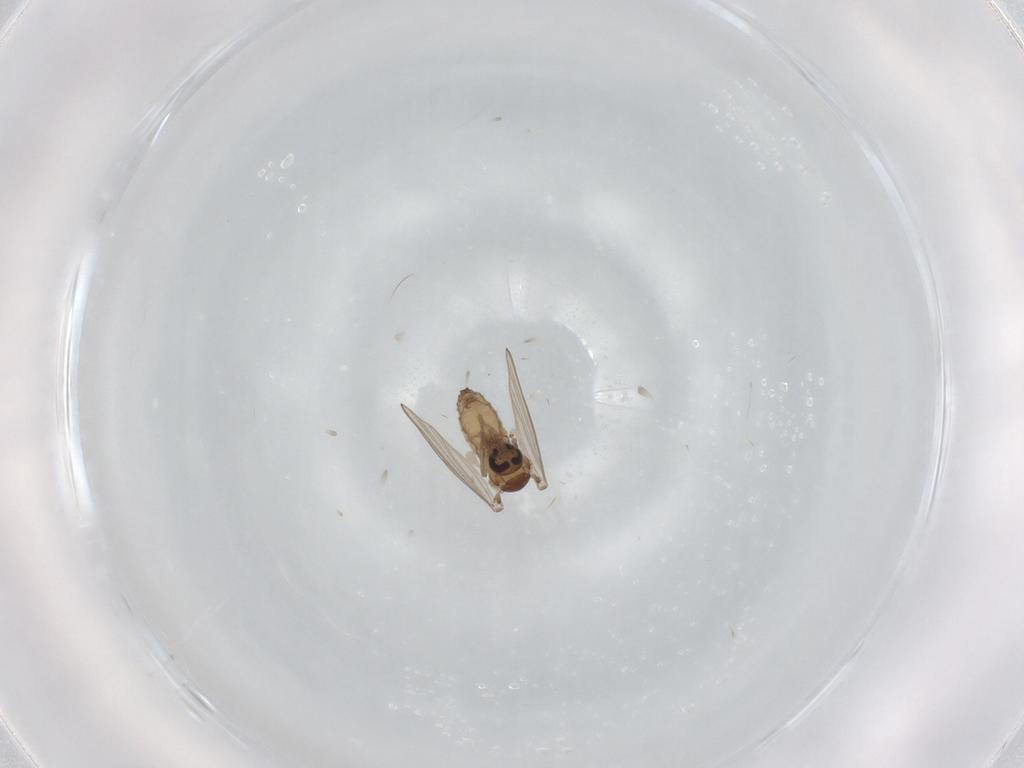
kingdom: Animalia
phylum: Arthropoda
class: Insecta
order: Diptera
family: Psychodidae
